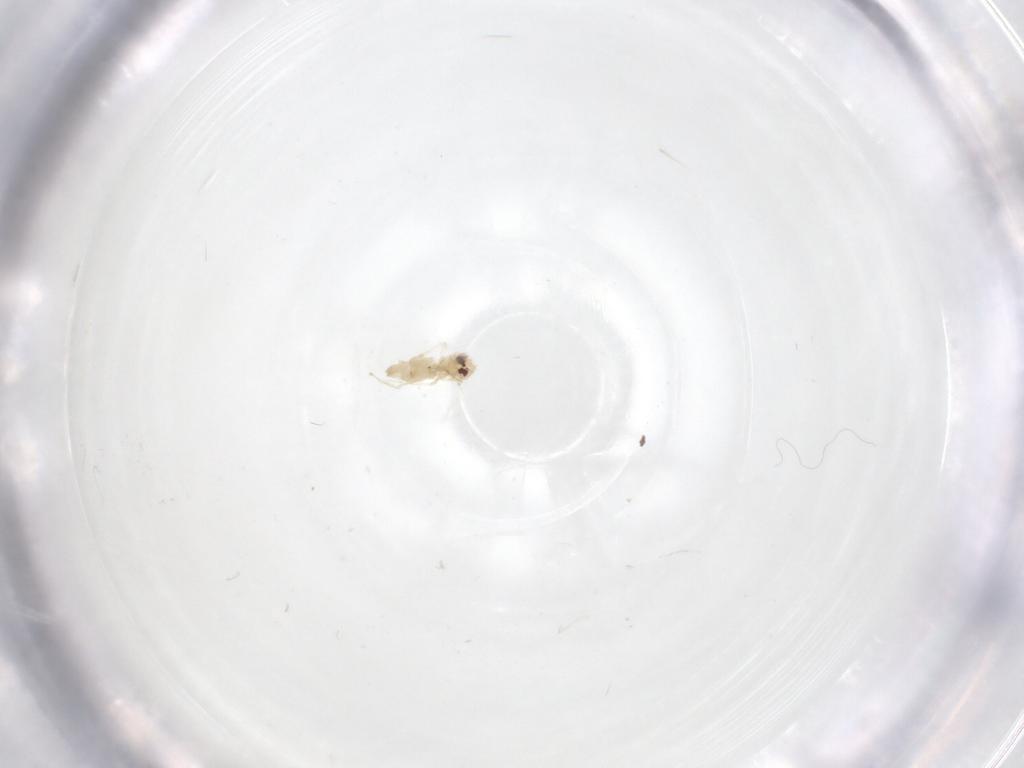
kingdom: Animalia
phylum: Arthropoda
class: Insecta
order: Hemiptera
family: Aleyrodidae
